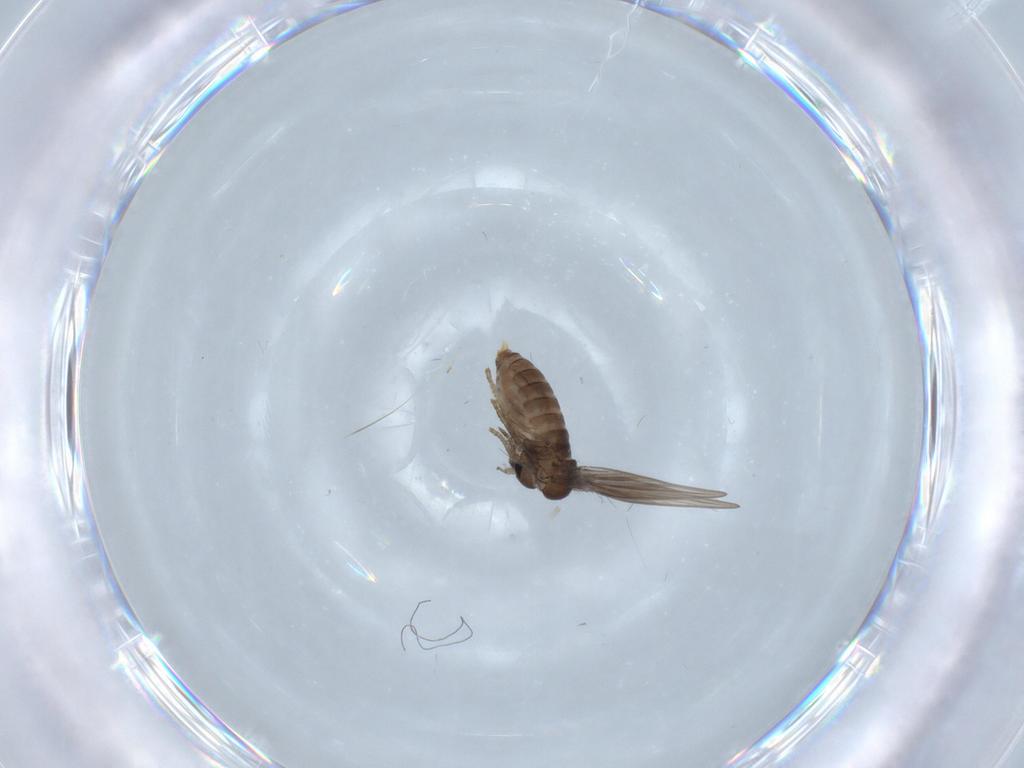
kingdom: Animalia
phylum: Arthropoda
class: Insecta
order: Diptera
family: Psychodidae
